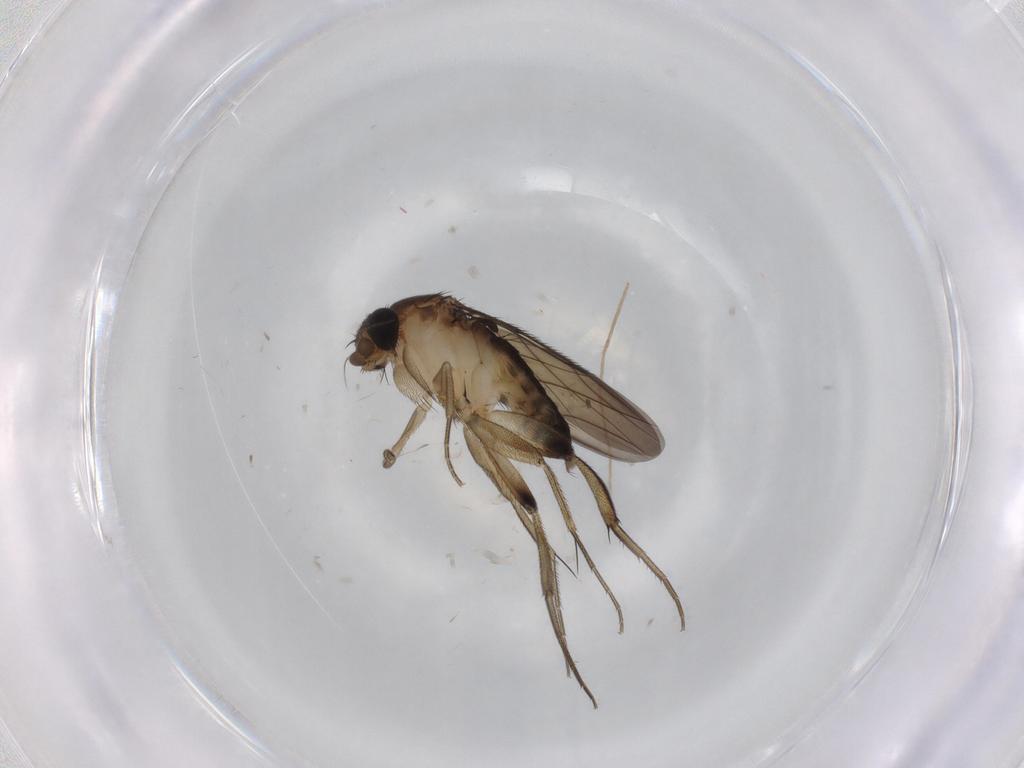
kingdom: Animalia
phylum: Arthropoda
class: Insecta
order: Diptera
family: Phoridae
